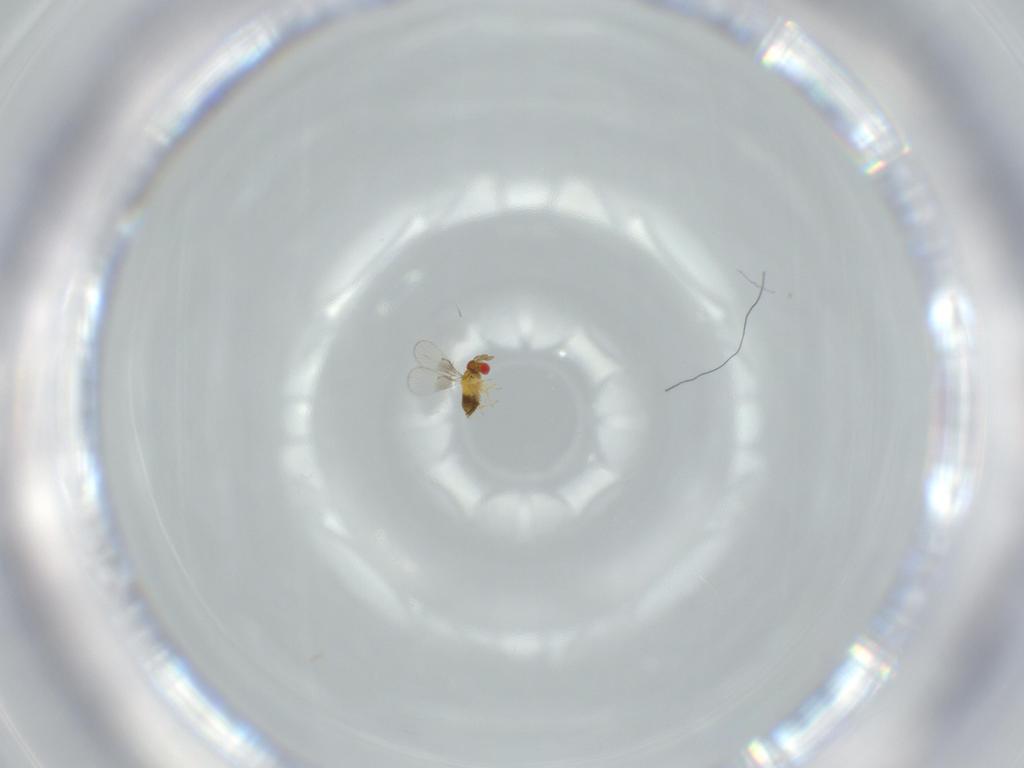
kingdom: Animalia
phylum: Arthropoda
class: Insecta
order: Hymenoptera
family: Trichogrammatidae
